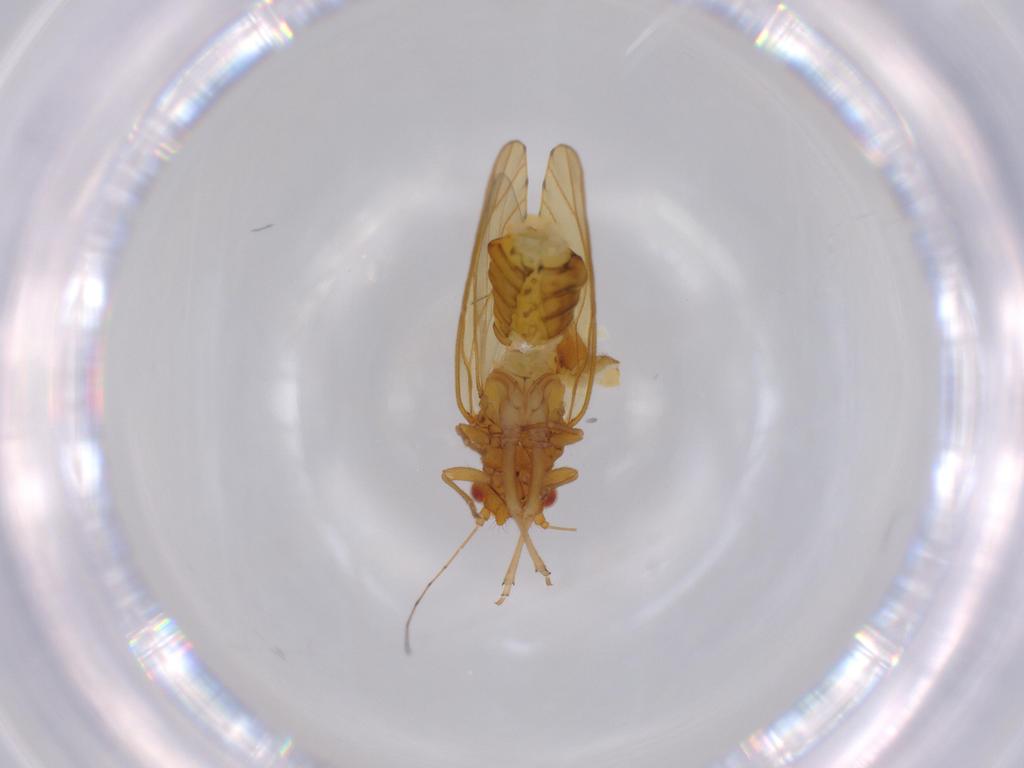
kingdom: Animalia
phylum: Arthropoda
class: Insecta
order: Hemiptera
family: Psylloidea_incertae_sedis
